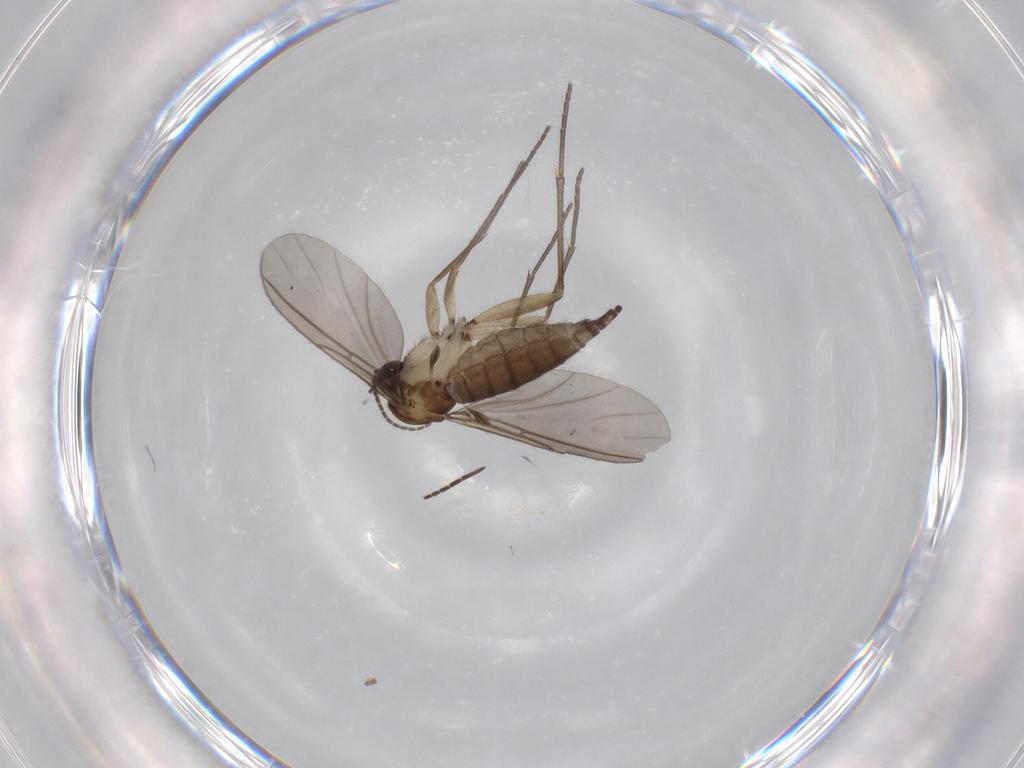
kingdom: Animalia
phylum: Arthropoda
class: Insecta
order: Diptera
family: Sciaridae
